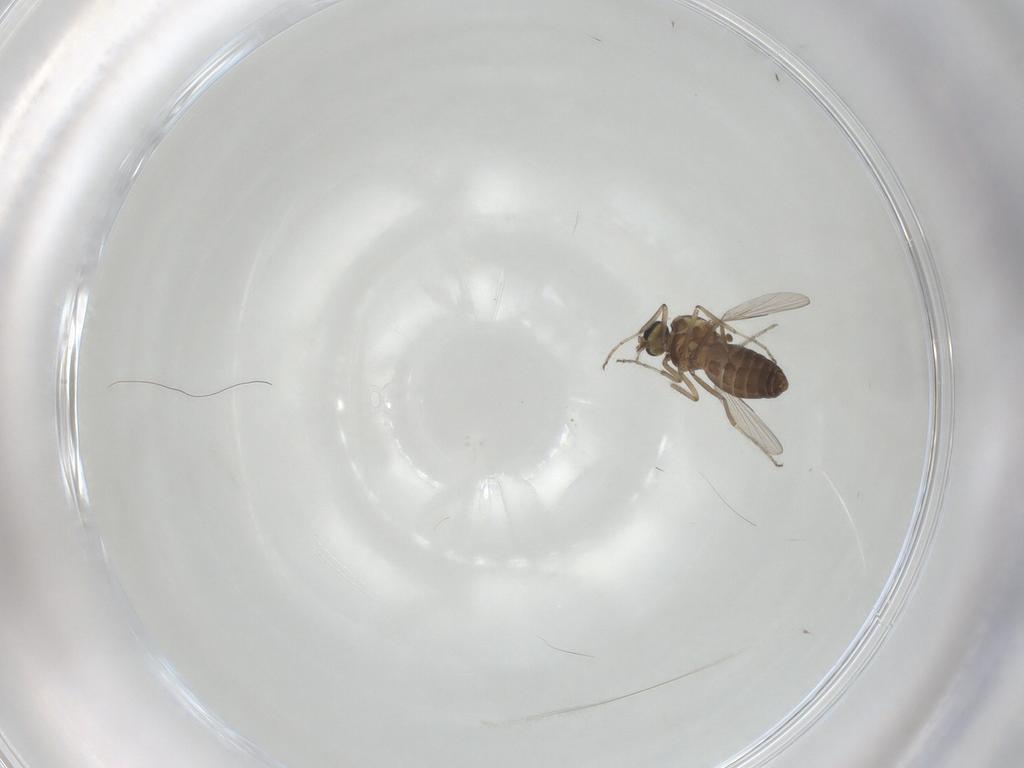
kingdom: Animalia
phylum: Arthropoda
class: Insecta
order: Diptera
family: Ceratopogonidae
